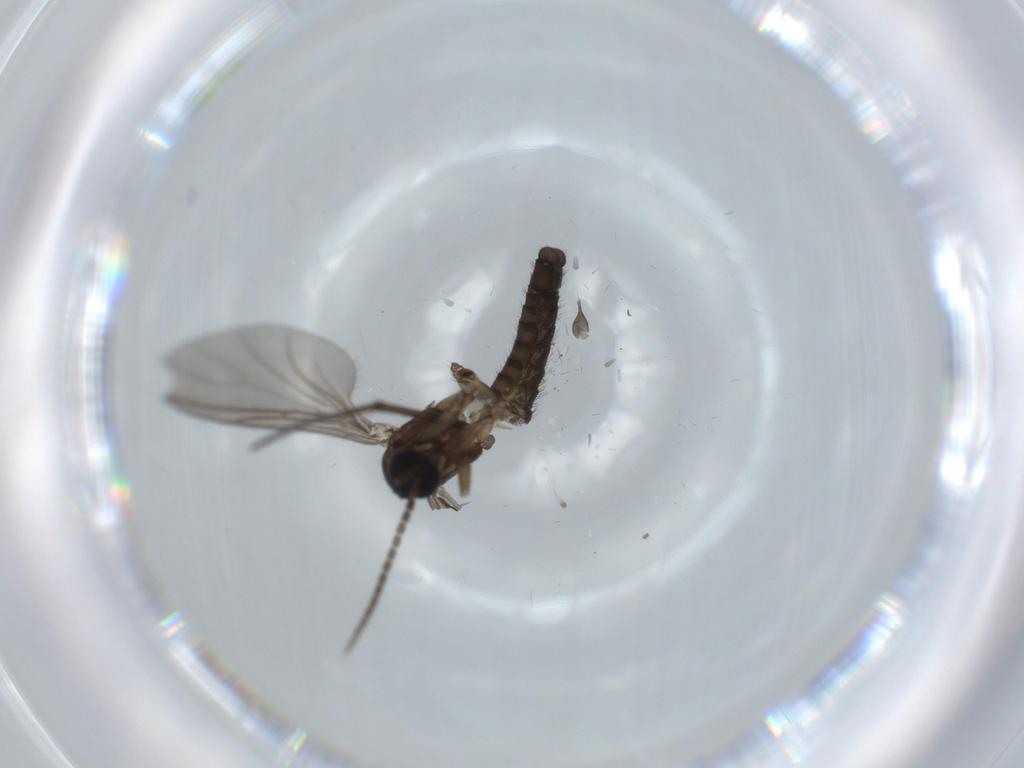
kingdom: Animalia
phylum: Arthropoda
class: Insecta
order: Diptera
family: Sciaridae
